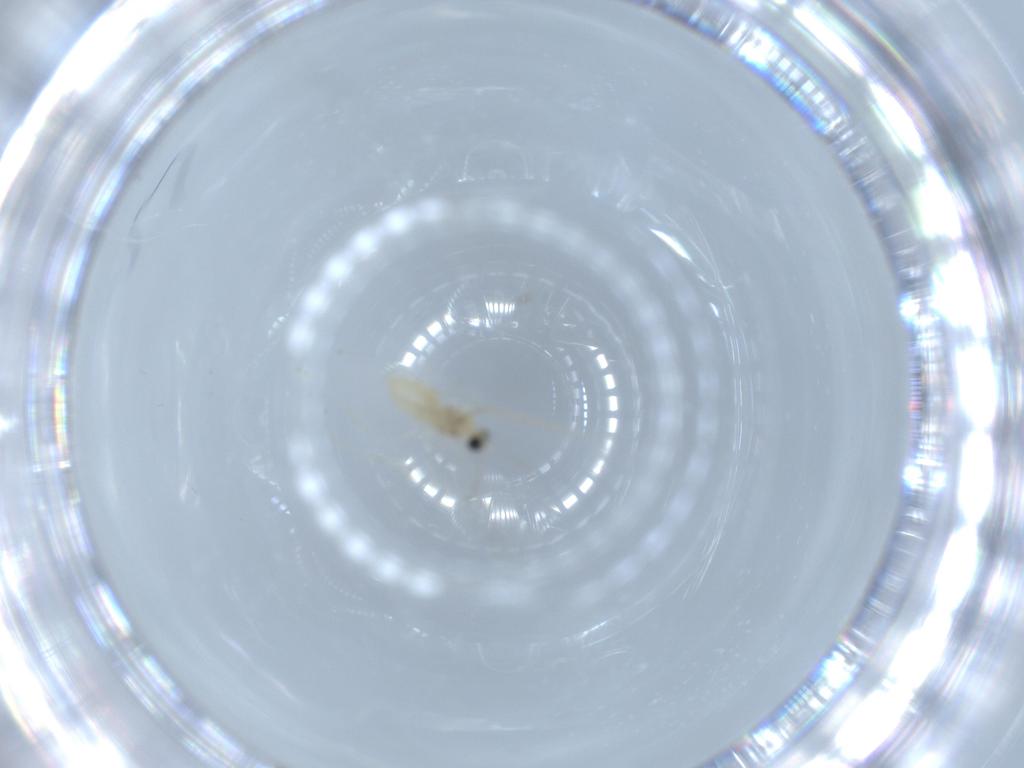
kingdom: Animalia
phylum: Arthropoda
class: Insecta
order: Diptera
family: Cecidomyiidae
